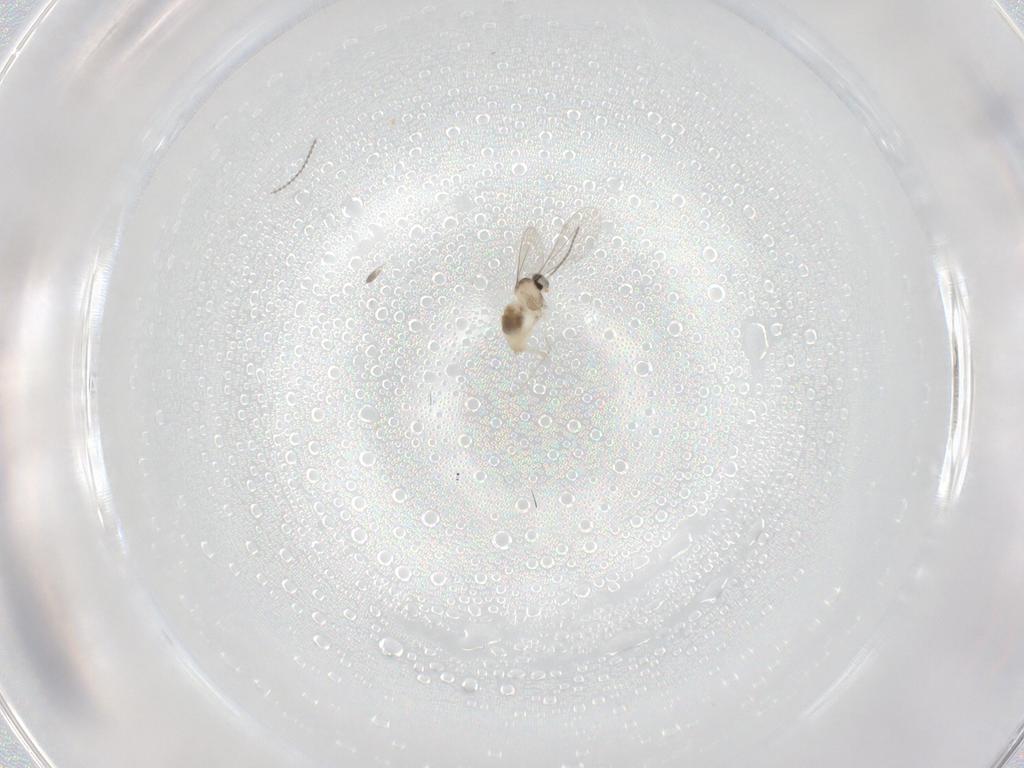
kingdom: Animalia
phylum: Arthropoda
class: Insecta
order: Diptera
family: Cecidomyiidae
